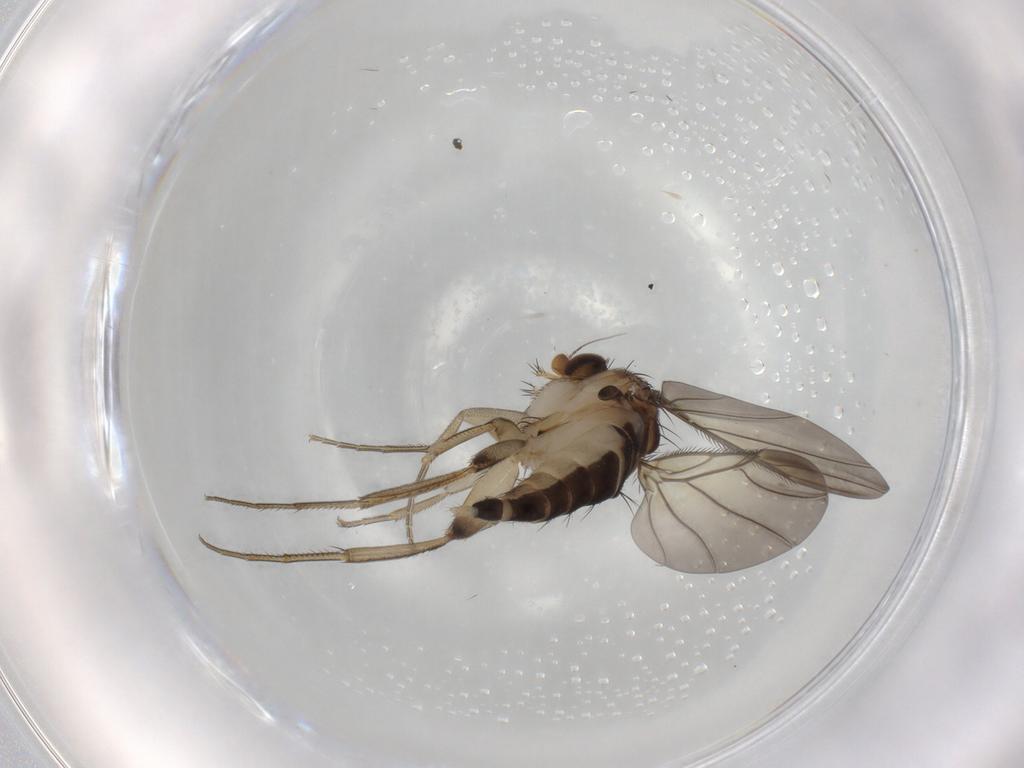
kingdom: Animalia
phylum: Arthropoda
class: Insecta
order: Diptera
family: Phoridae
